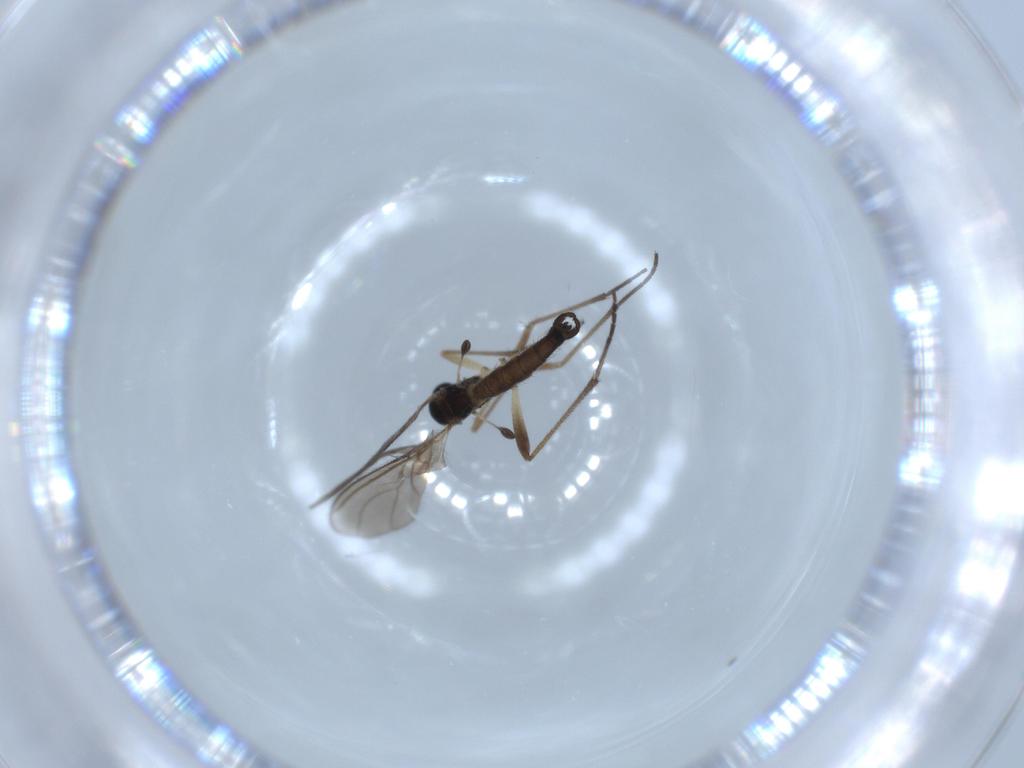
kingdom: Animalia
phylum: Arthropoda
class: Insecta
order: Diptera
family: Sciaridae
